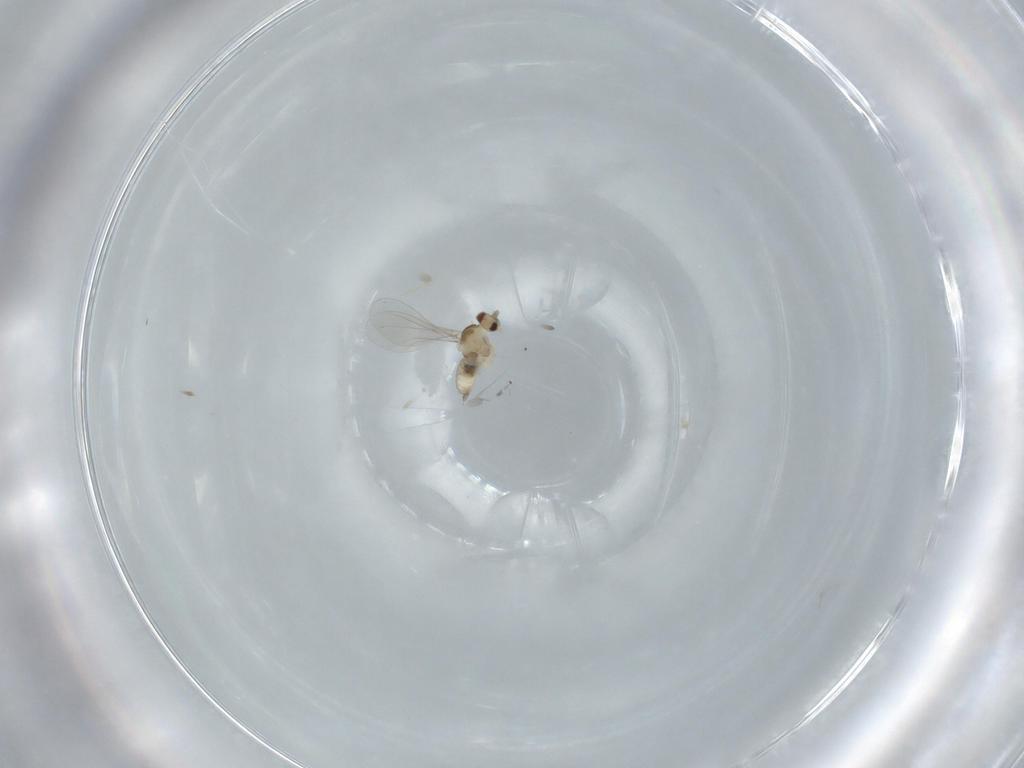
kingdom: Animalia
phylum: Arthropoda
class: Insecta
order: Diptera
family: Cecidomyiidae
